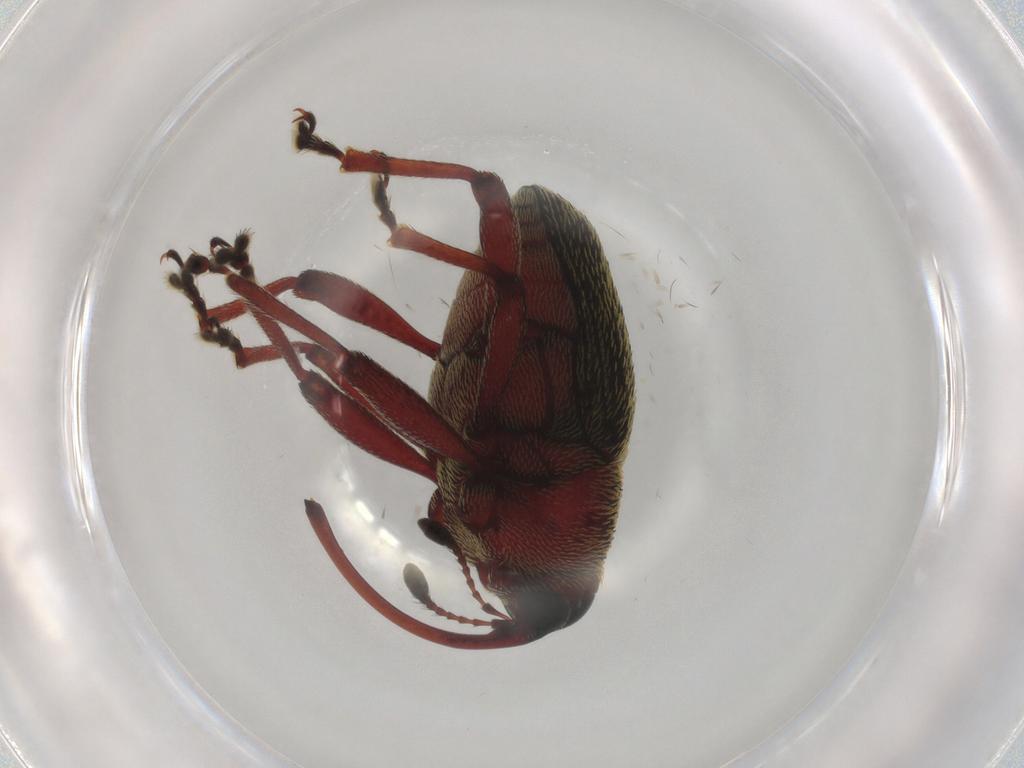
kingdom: Animalia
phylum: Arthropoda
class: Insecta
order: Coleoptera
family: Curculionidae
